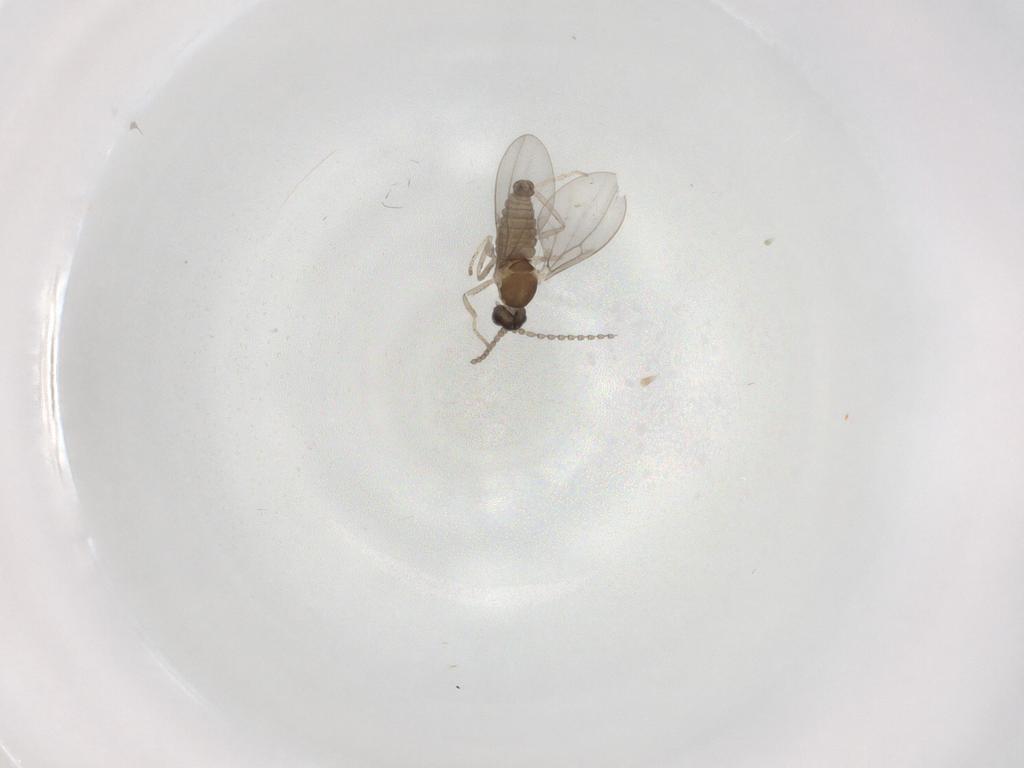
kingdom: Animalia
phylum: Arthropoda
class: Insecta
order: Diptera
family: Cecidomyiidae
